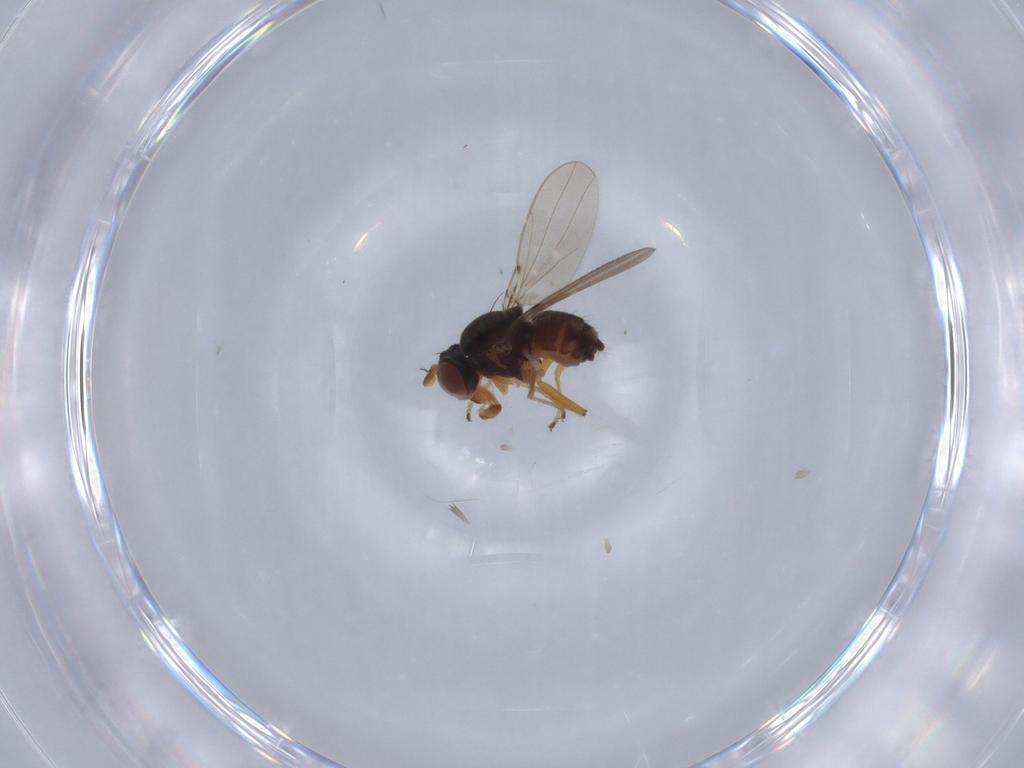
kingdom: Animalia
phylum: Arthropoda
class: Insecta
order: Diptera
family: Ephydridae
